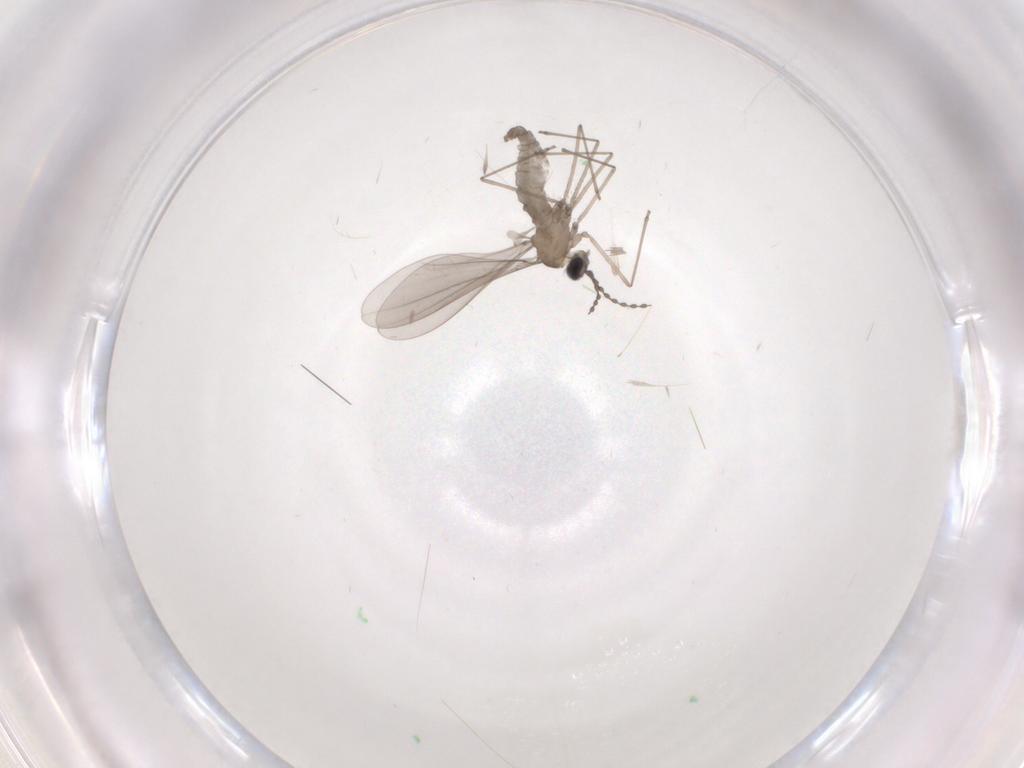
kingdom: Animalia
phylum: Arthropoda
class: Insecta
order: Diptera
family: Cecidomyiidae
